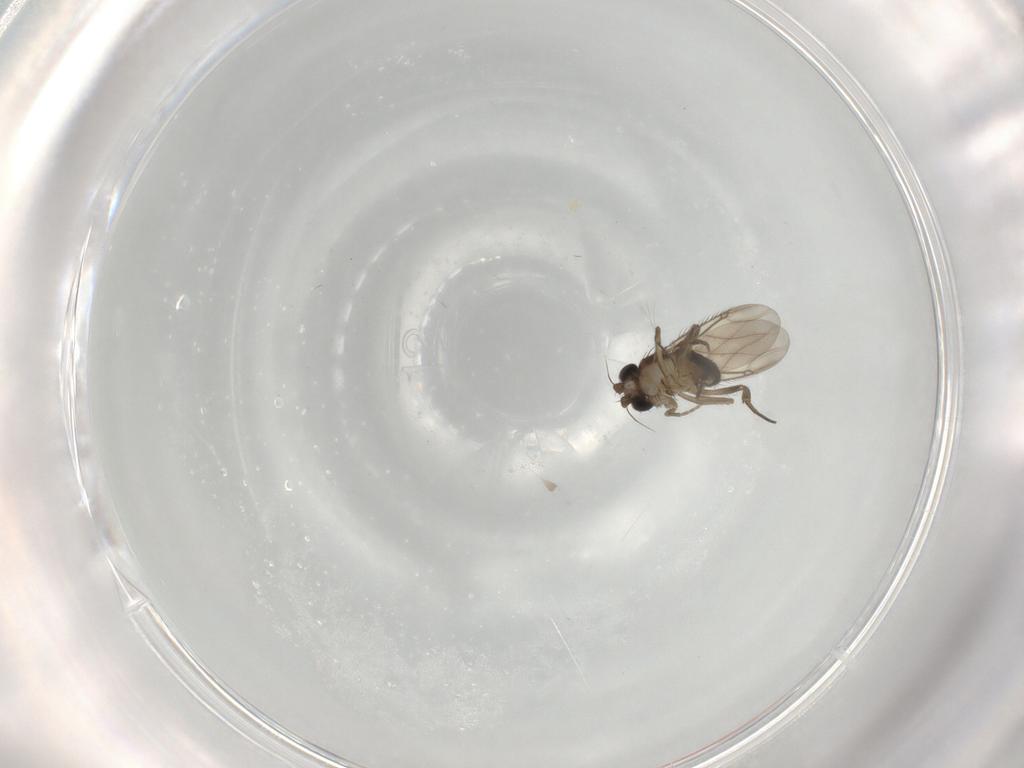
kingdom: Animalia
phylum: Arthropoda
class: Insecta
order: Diptera
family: Phoridae
